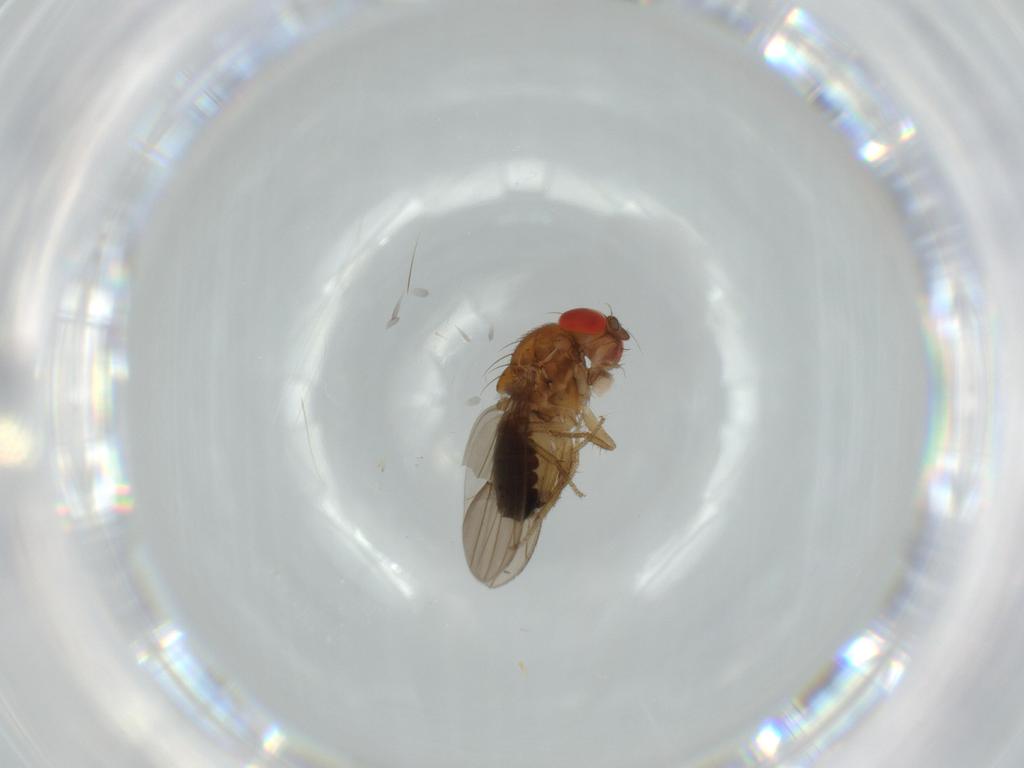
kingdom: Animalia
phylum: Arthropoda
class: Insecta
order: Diptera
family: Drosophilidae
